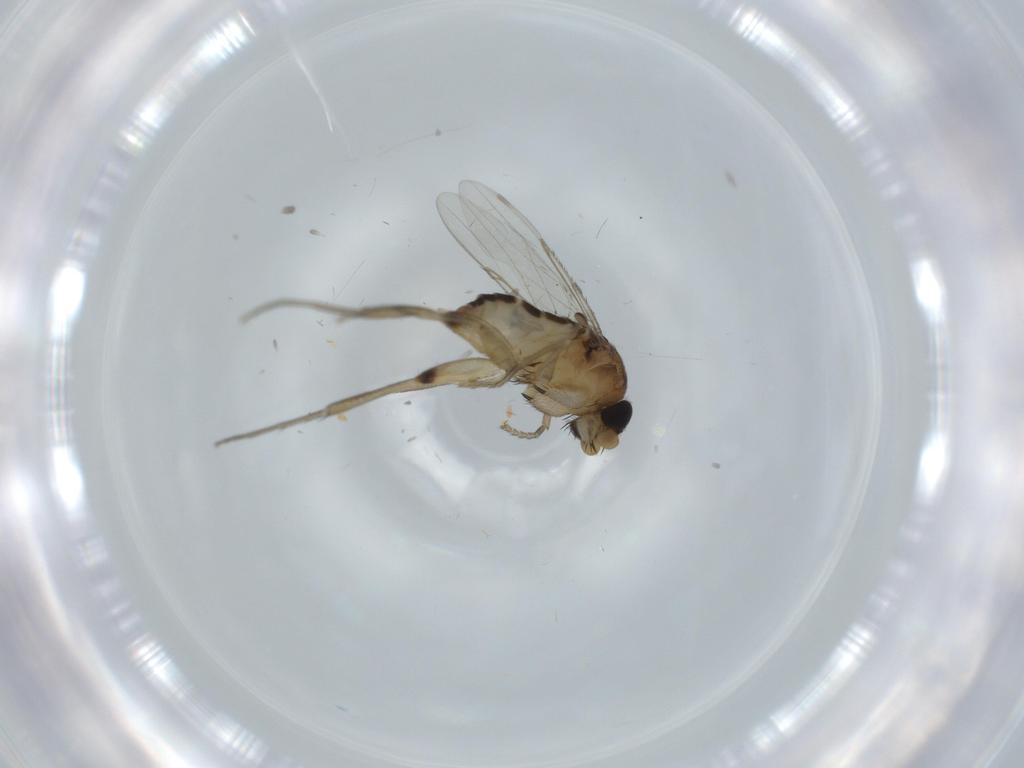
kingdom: Animalia
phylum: Arthropoda
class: Insecta
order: Diptera
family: Phoridae
